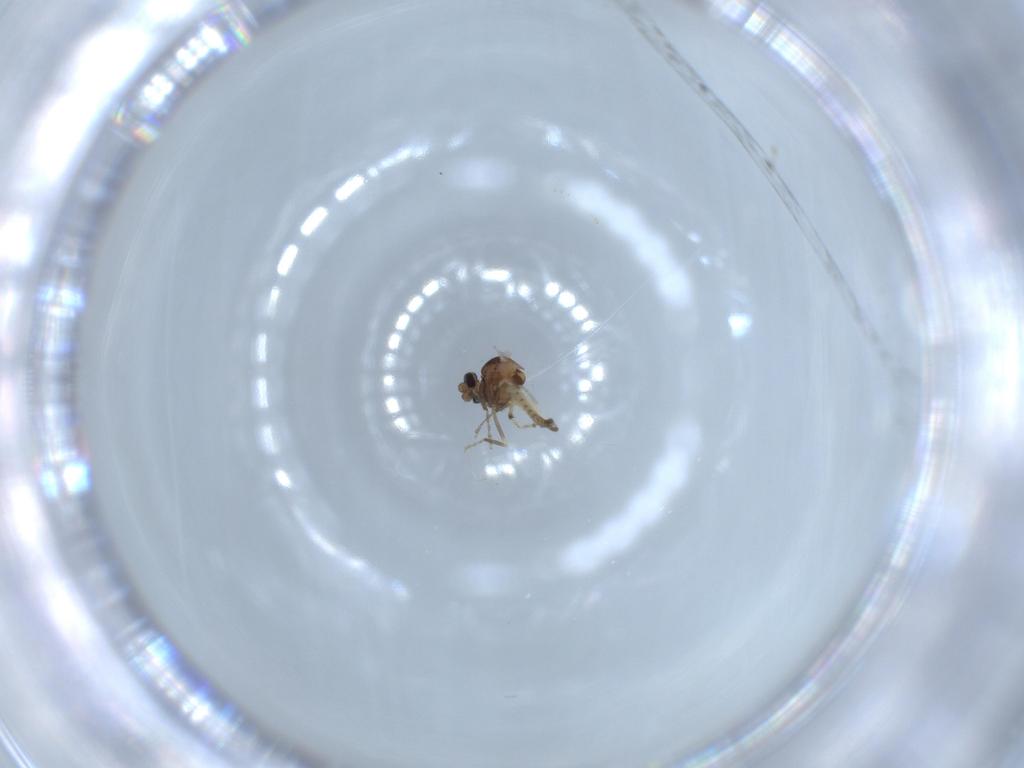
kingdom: Animalia
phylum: Arthropoda
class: Insecta
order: Diptera
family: Ceratopogonidae
